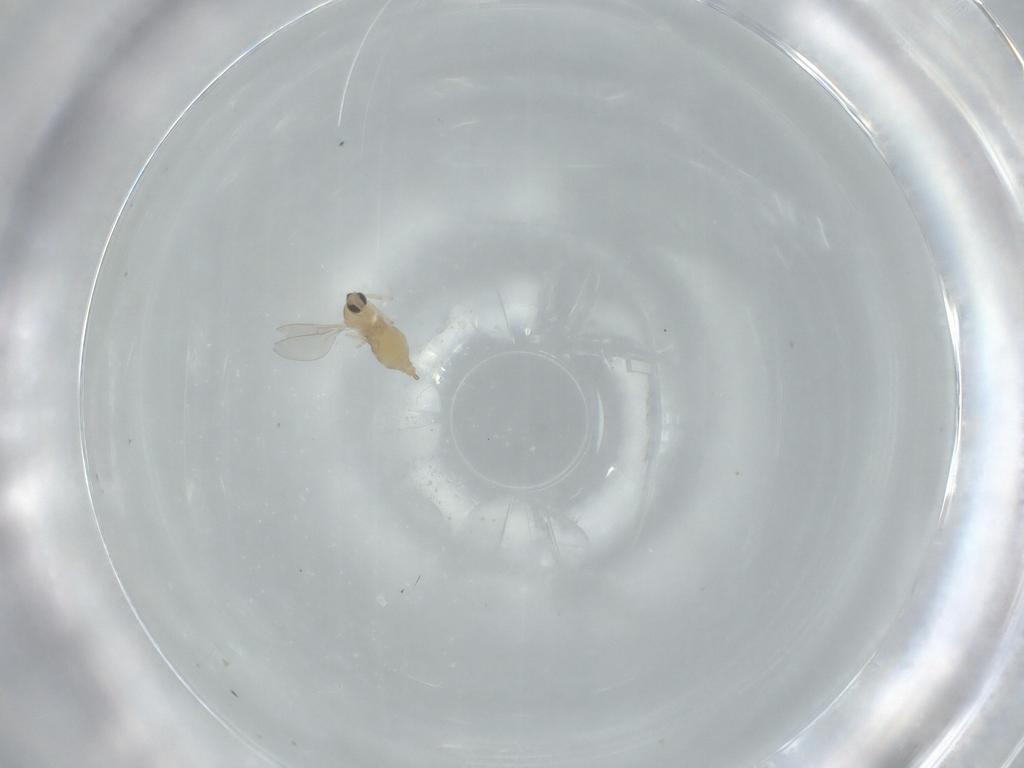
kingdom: Animalia
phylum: Arthropoda
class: Insecta
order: Diptera
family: Cecidomyiidae
